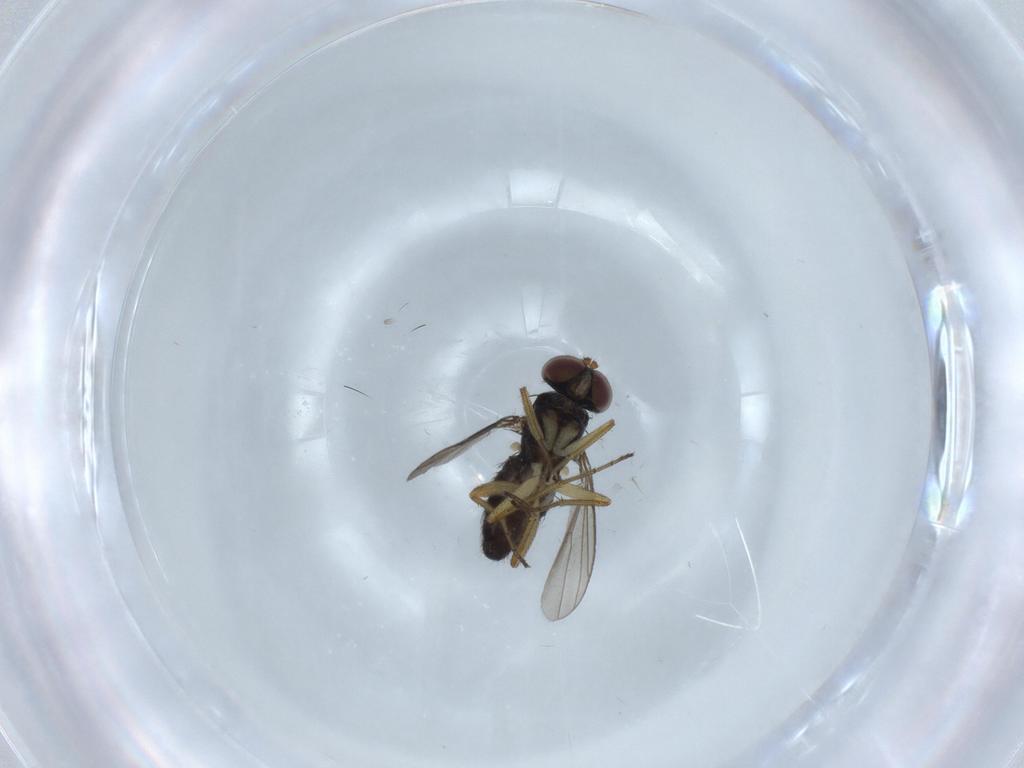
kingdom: Animalia
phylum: Arthropoda
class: Insecta
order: Diptera
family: Dolichopodidae
